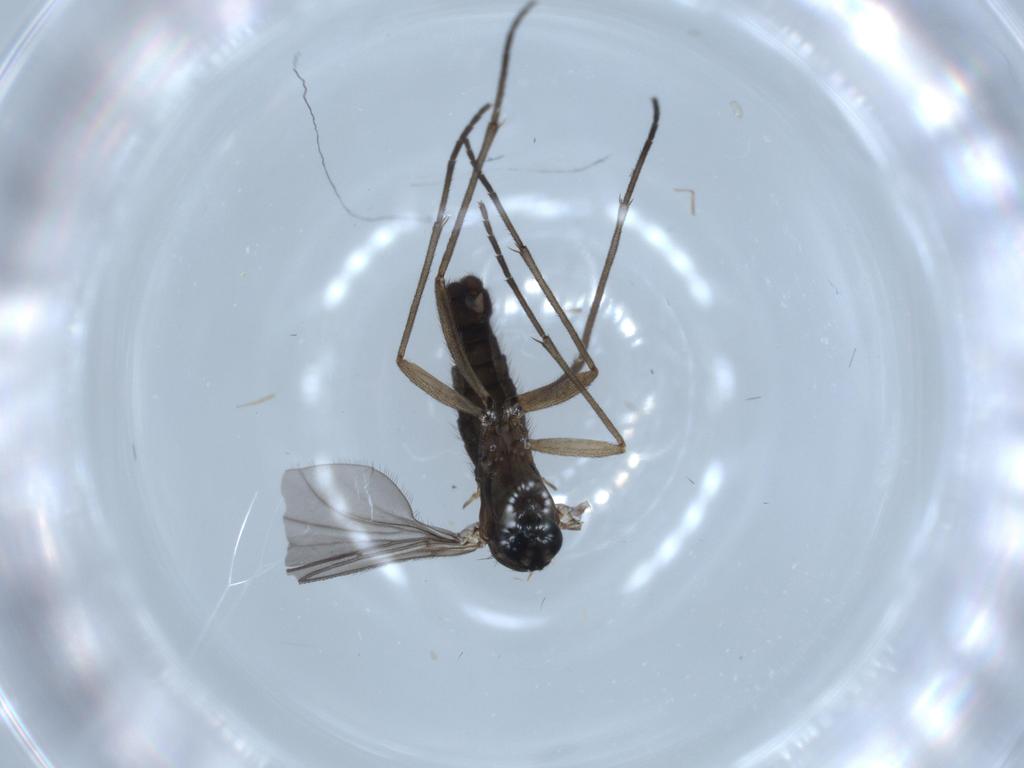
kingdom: Animalia
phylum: Arthropoda
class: Insecta
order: Diptera
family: Sciaridae
